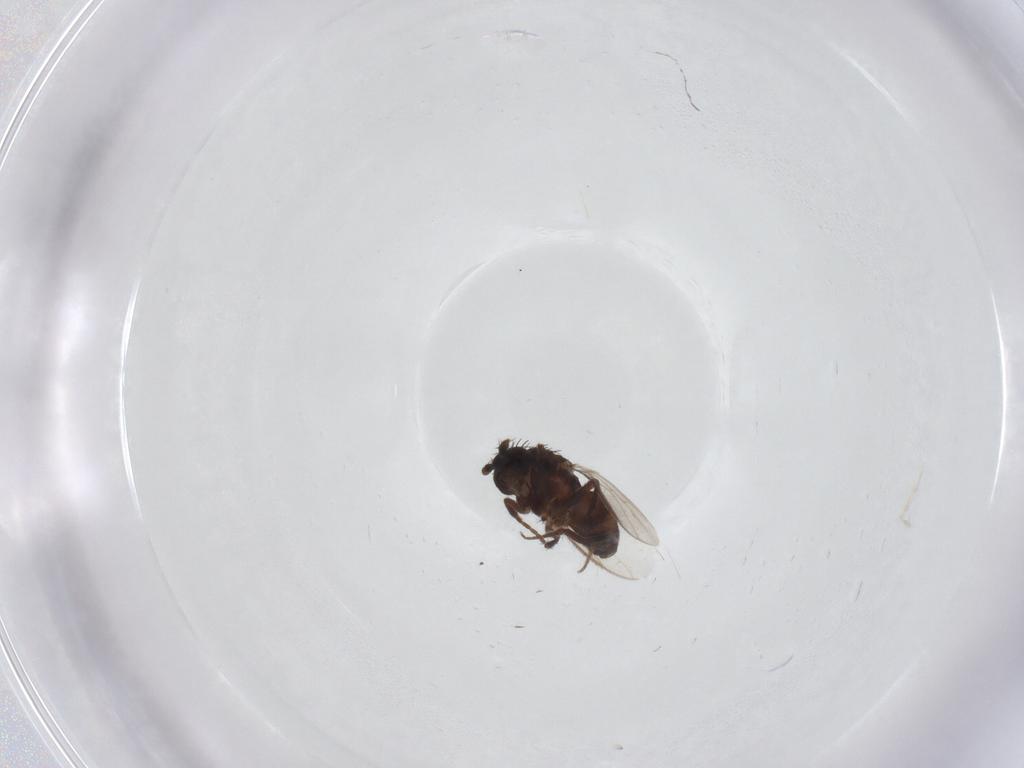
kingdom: Animalia
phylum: Arthropoda
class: Insecta
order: Diptera
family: Sphaeroceridae
